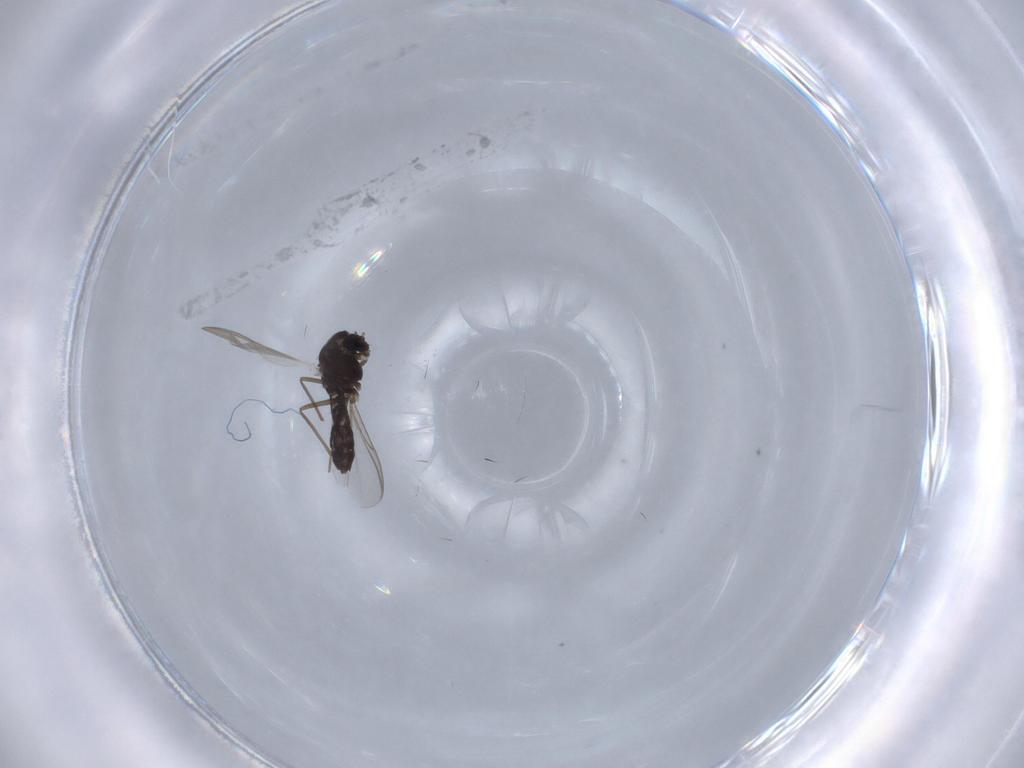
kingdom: Animalia
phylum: Arthropoda
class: Insecta
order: Diptera
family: Chironomidae
